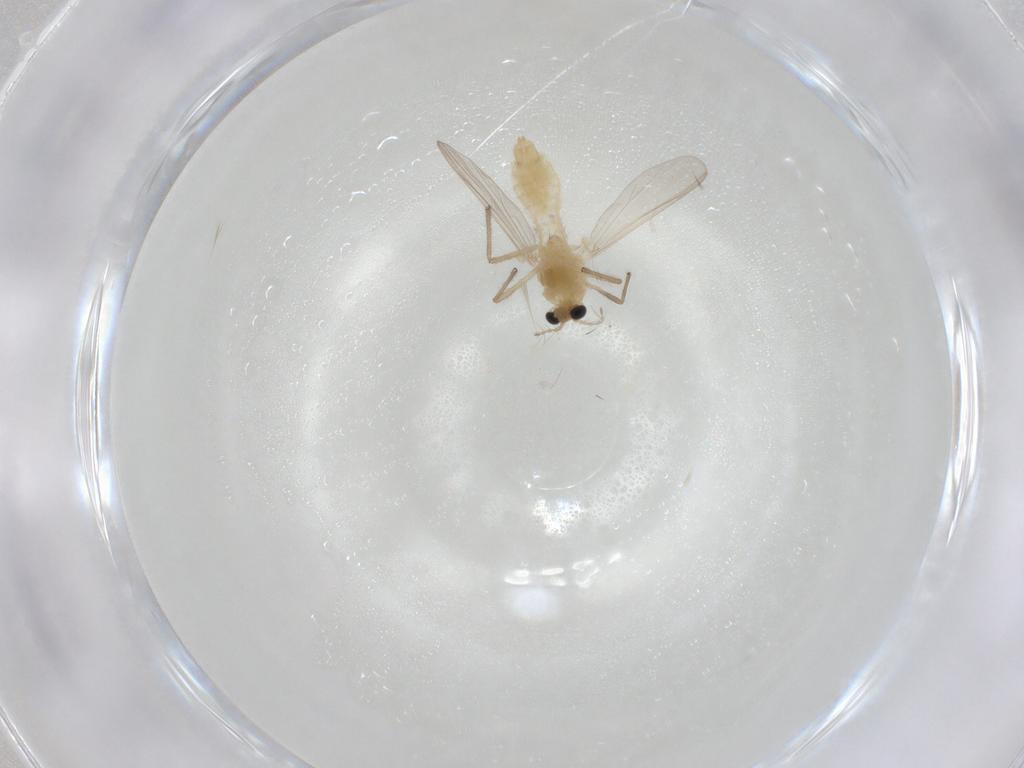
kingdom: Animalia
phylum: Arthropoda
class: Insecta
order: Diptera
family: Chironomidae
